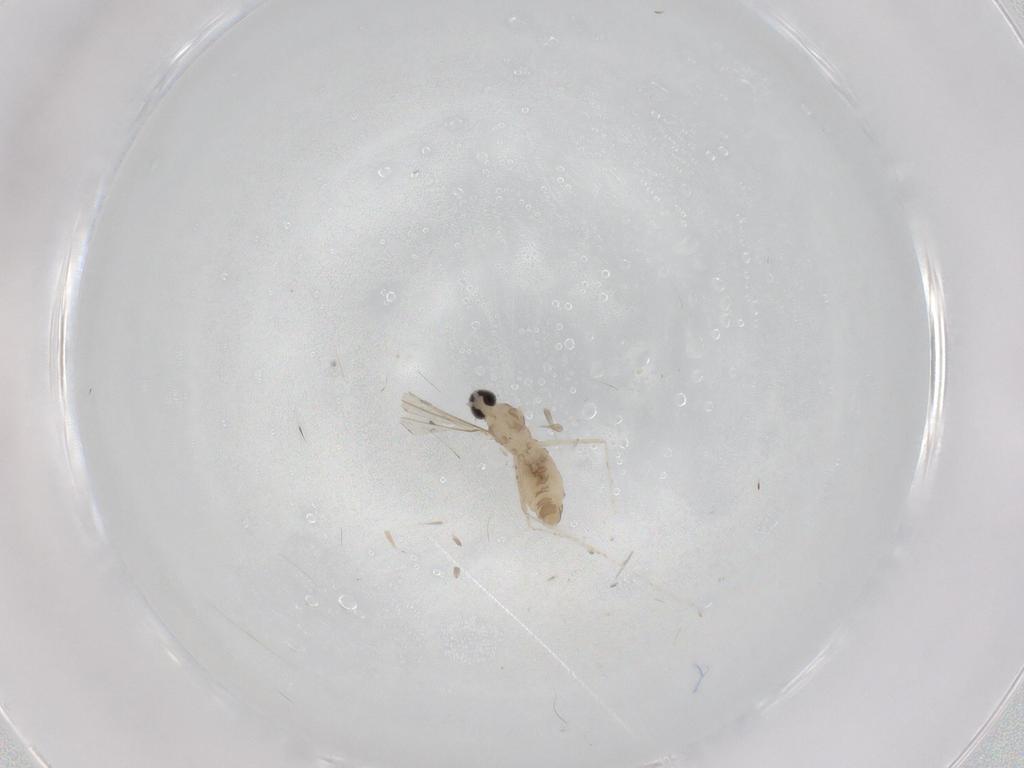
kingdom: Animalia
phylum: Arthropoda
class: Insecta
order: Diptera
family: Cecidomyiidae
